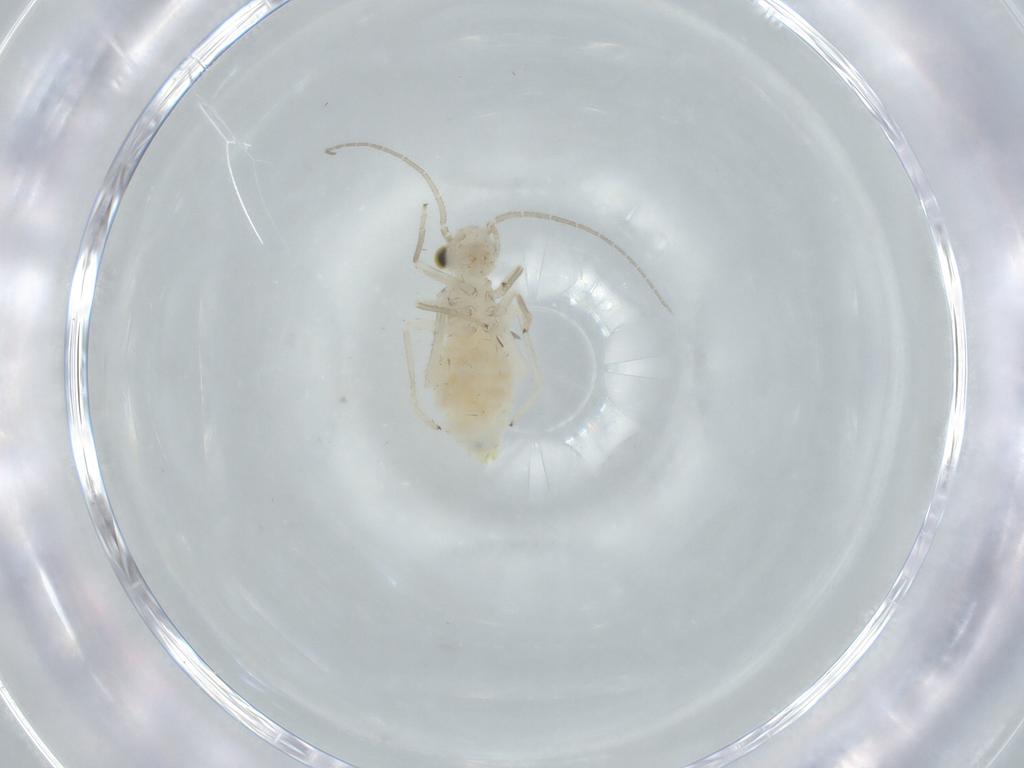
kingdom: Animalia
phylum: Arthropoda
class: Insecta
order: Psocodea
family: Caeciliusidae
